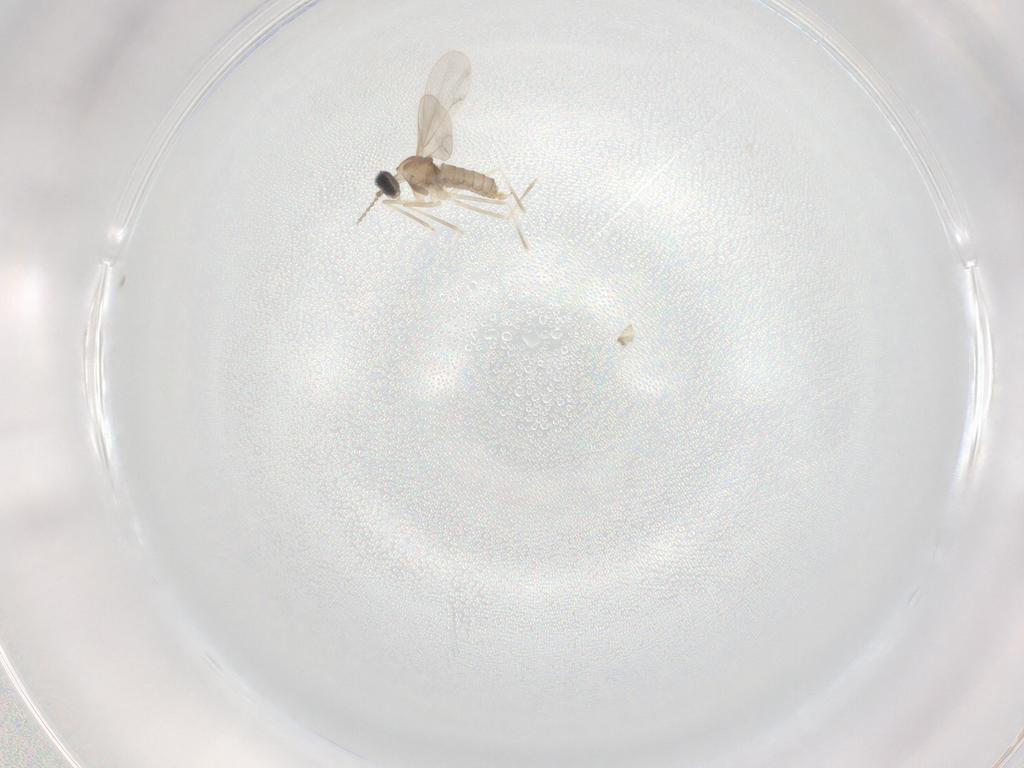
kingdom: Animalia
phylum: Arthropoda
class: Insecta
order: Diptera
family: Cecidomyiidae
